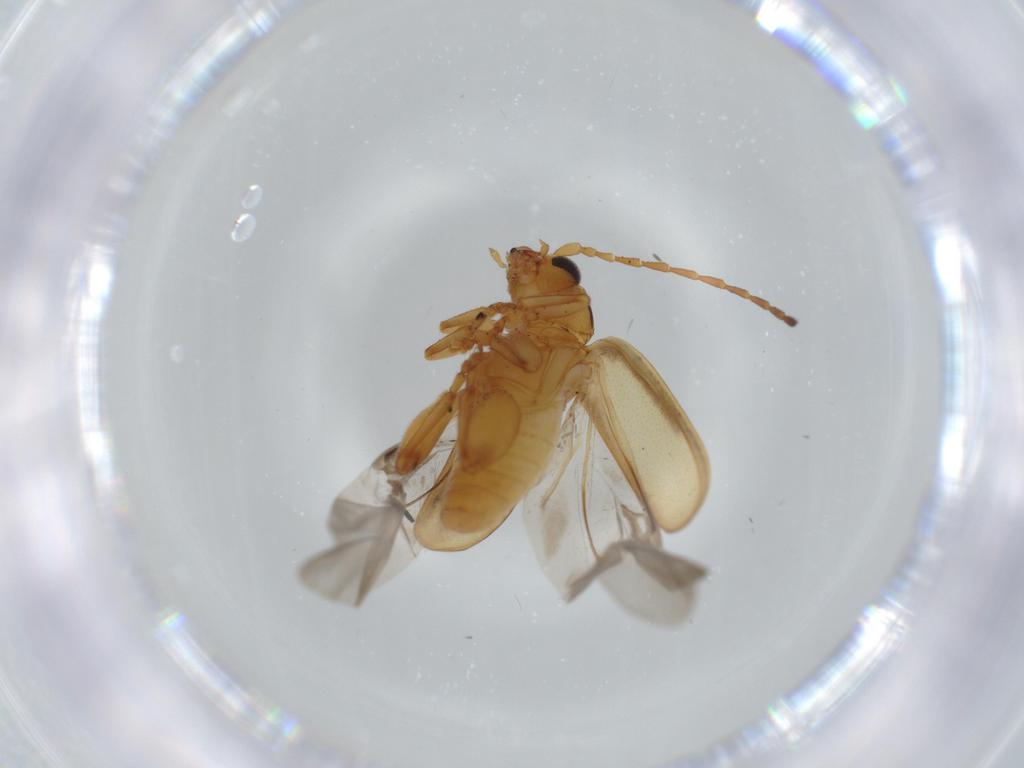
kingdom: Animalia
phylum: Arthropoda
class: Insecta
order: Coleoptera
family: Chrysomelidae
